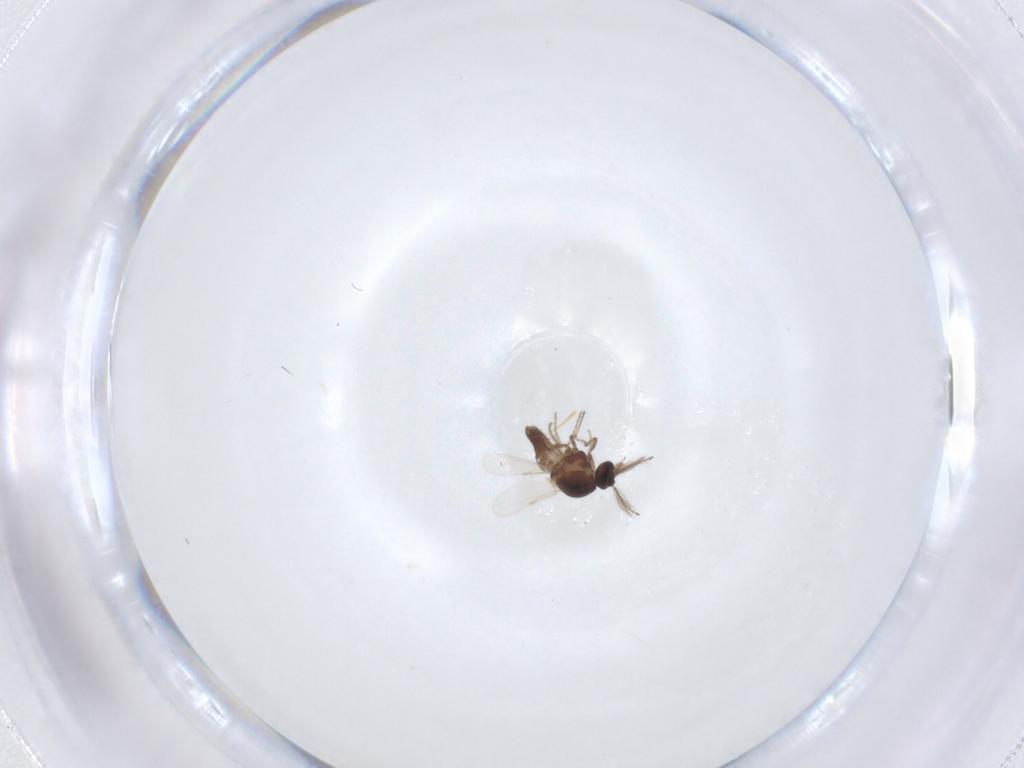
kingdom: Animalia
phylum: Arthropoda
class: Insecta
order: Diptera
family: Ceratopogonidae
